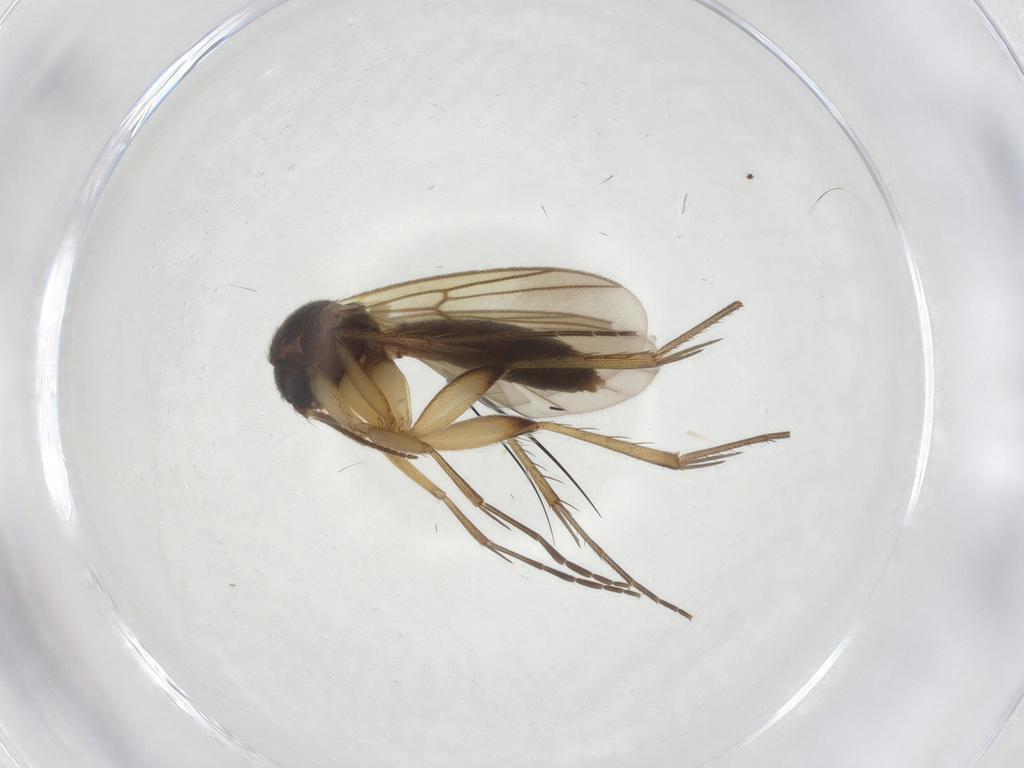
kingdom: Animalia
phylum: Arthropoda
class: Insecta
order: Diptera
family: Mycetophilidae
